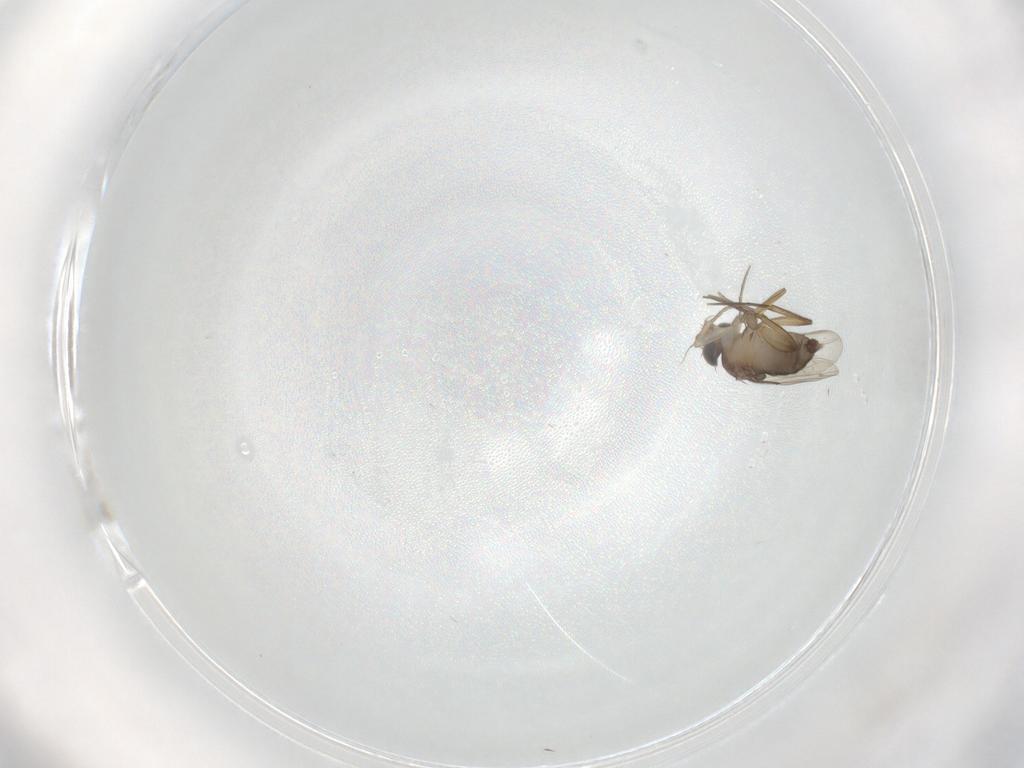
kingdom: Animalia
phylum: Arthropoda
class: Insecta
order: Diptera
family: Phoridae
